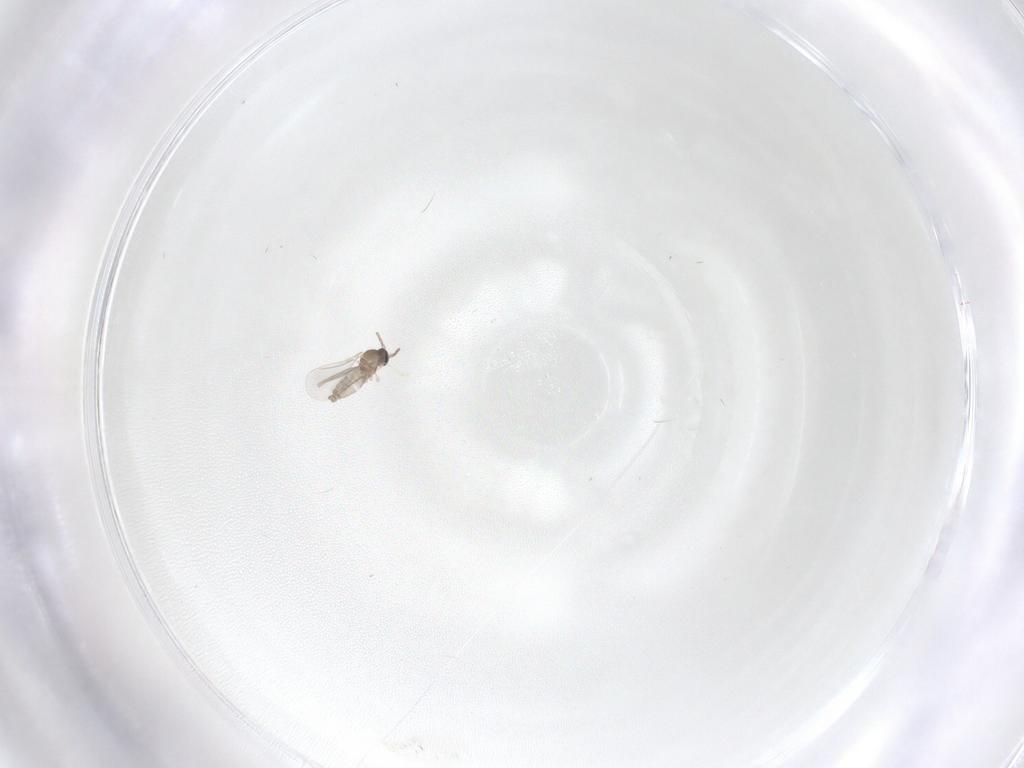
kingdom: Animalia
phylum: Arthropoda
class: Insecta
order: Diptera
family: Cecidomyiidae
